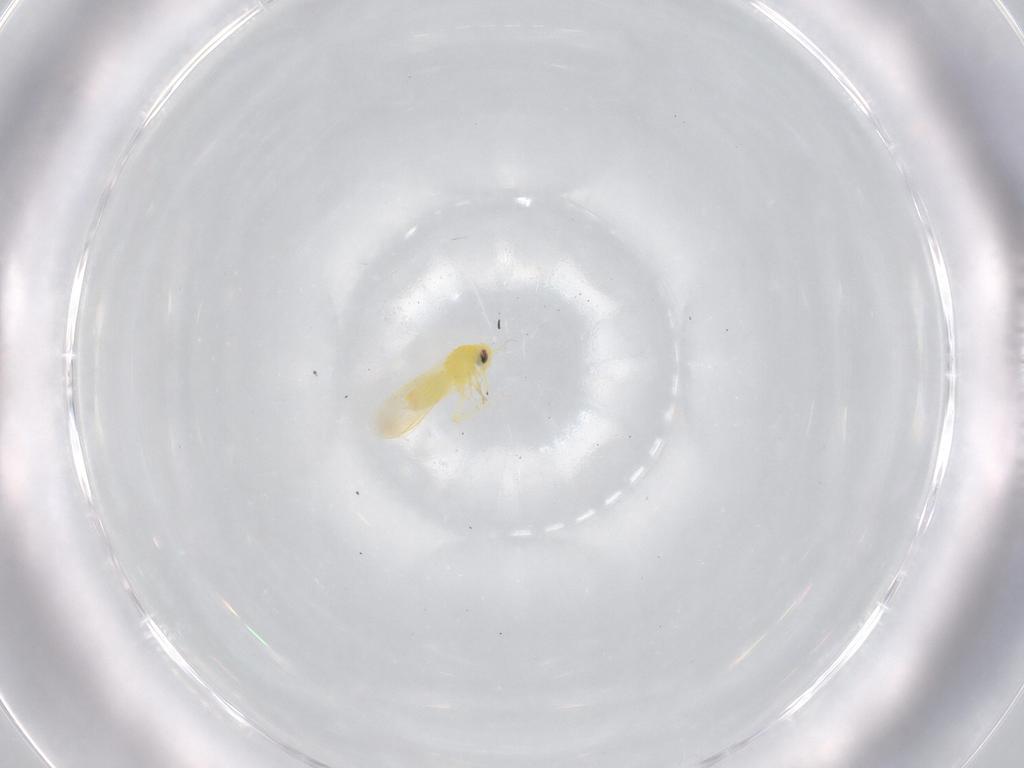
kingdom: Animalia
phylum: Arthropoda
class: Insecta
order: Hemiptera
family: Aleyrodidae
